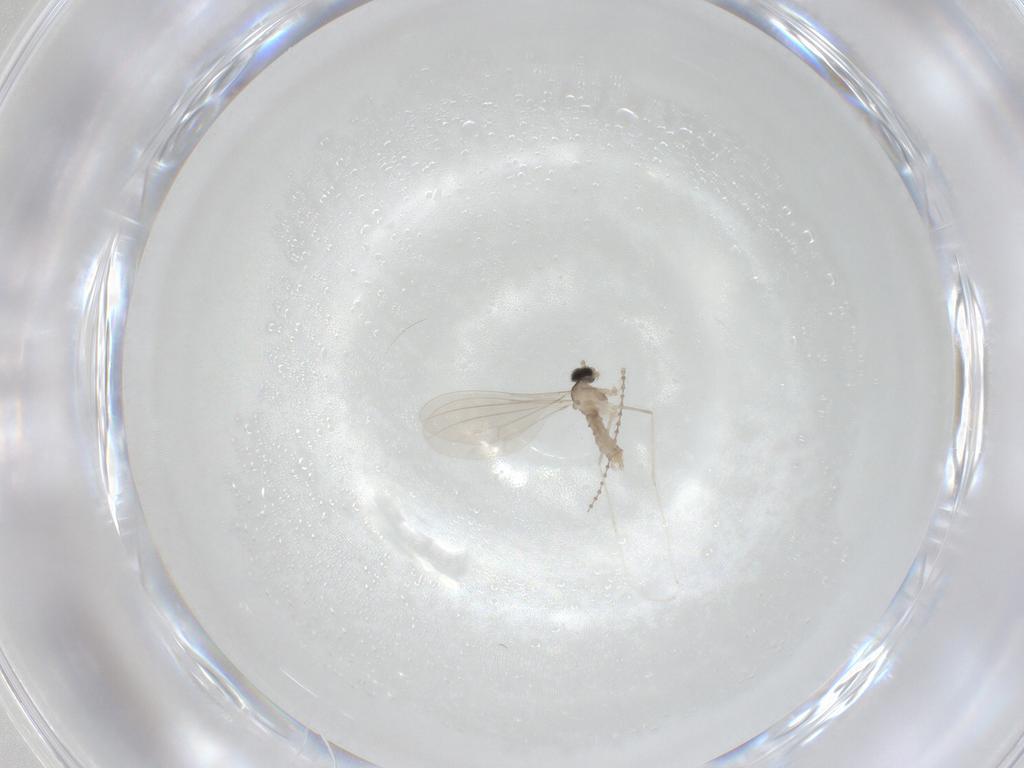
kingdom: Animalia
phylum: Arthropoda
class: Insecta
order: Diptera
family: Cecidomyiidae
